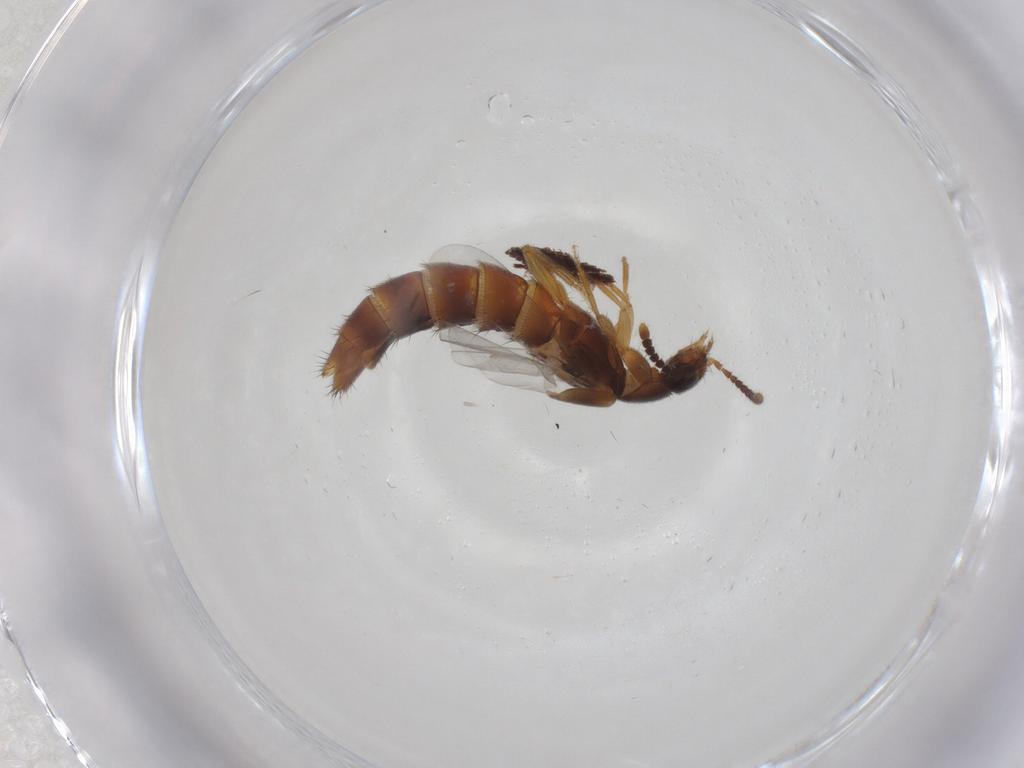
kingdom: Animalia
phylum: Arthropoda
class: Insecta
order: Coleoptera
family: Staphylinidae
